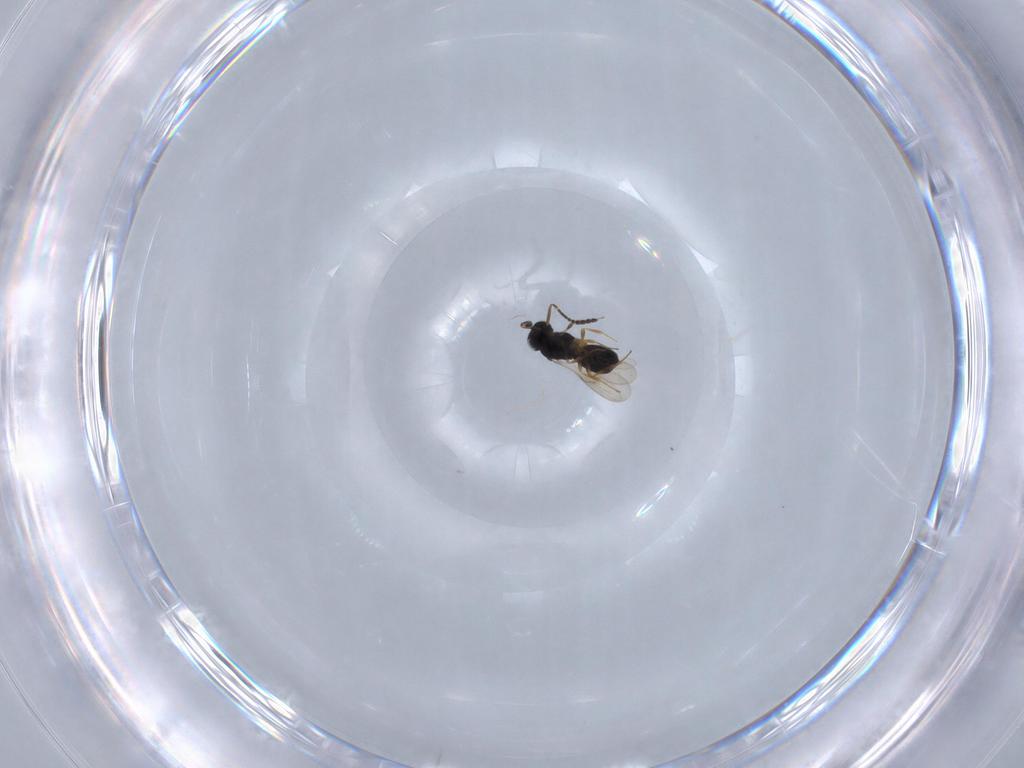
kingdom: Animalia
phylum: Arthropoda
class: Insecta
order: Hymenoptera
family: Scelionidae
